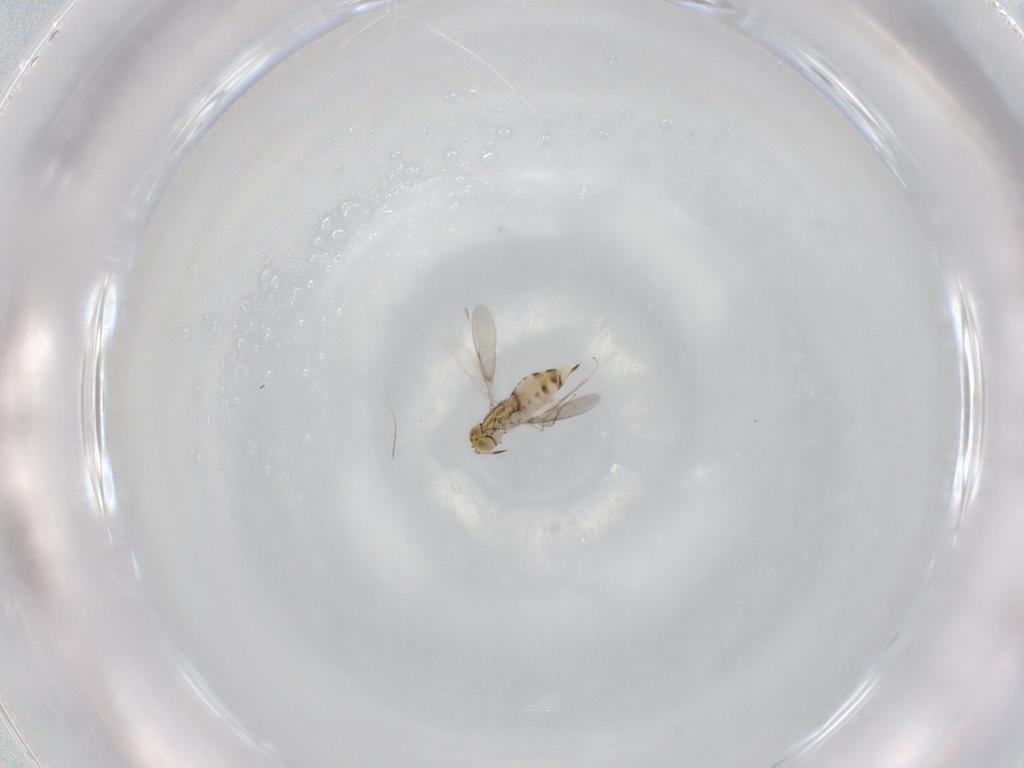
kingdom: Animalia
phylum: Arthropoda
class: Insecta
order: Hymenoptera
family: Aphelinidae
